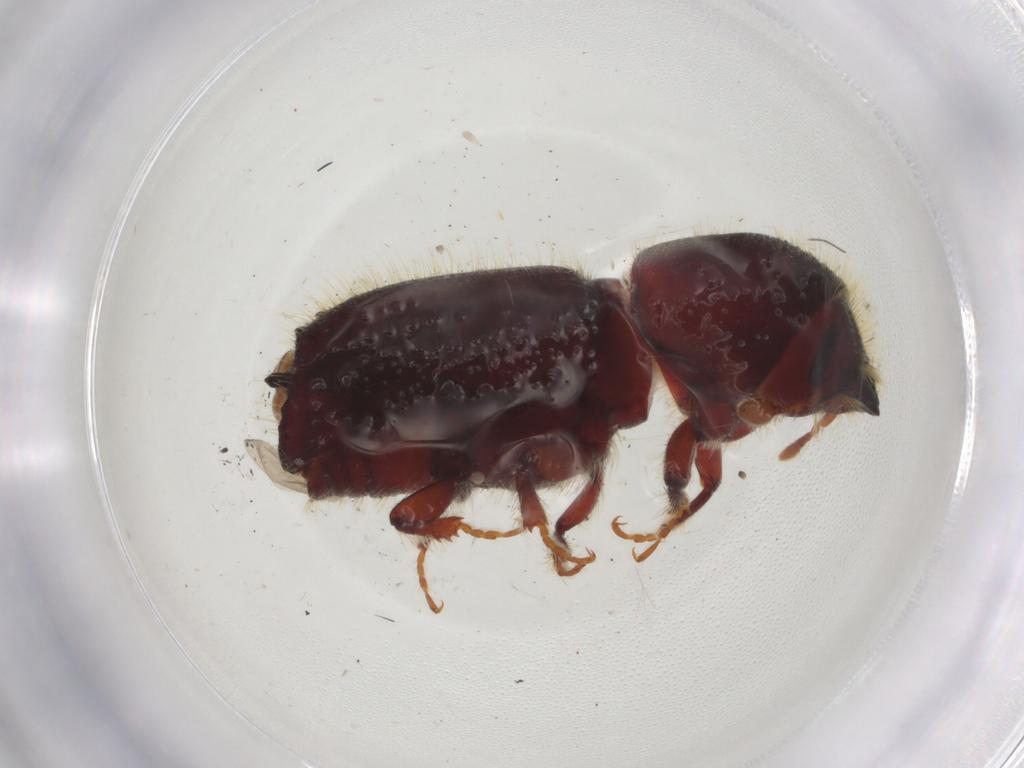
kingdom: Animalia
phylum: Arthropoda
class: Insecta
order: Coleoptera
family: Curculionidae
